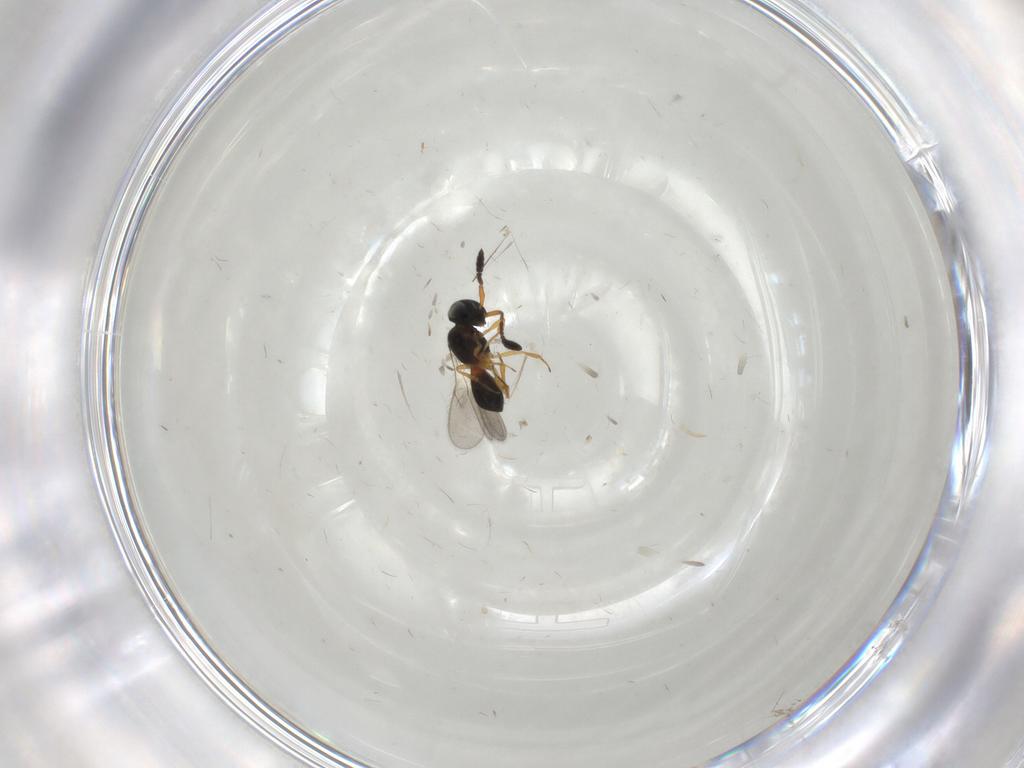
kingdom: Animalia
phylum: Arthropoda
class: Insecta
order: Hymenoptera
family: Scelionidae
